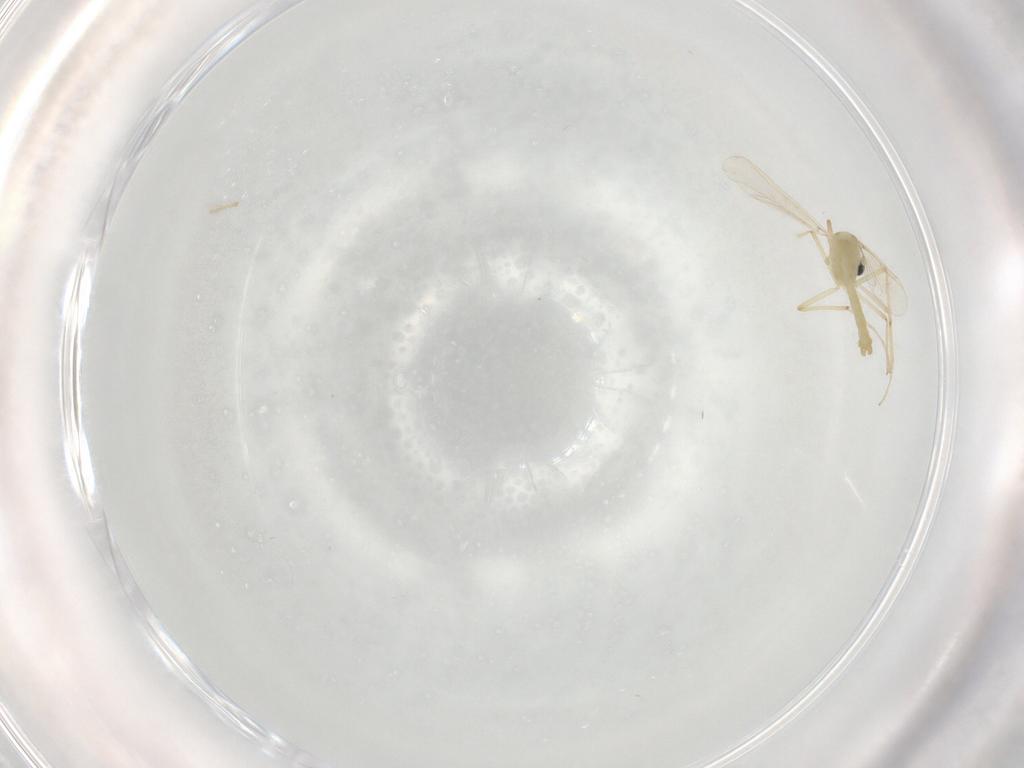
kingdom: Animalia
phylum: Arthropoda
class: Insecta
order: Diptera
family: Chironomidae
